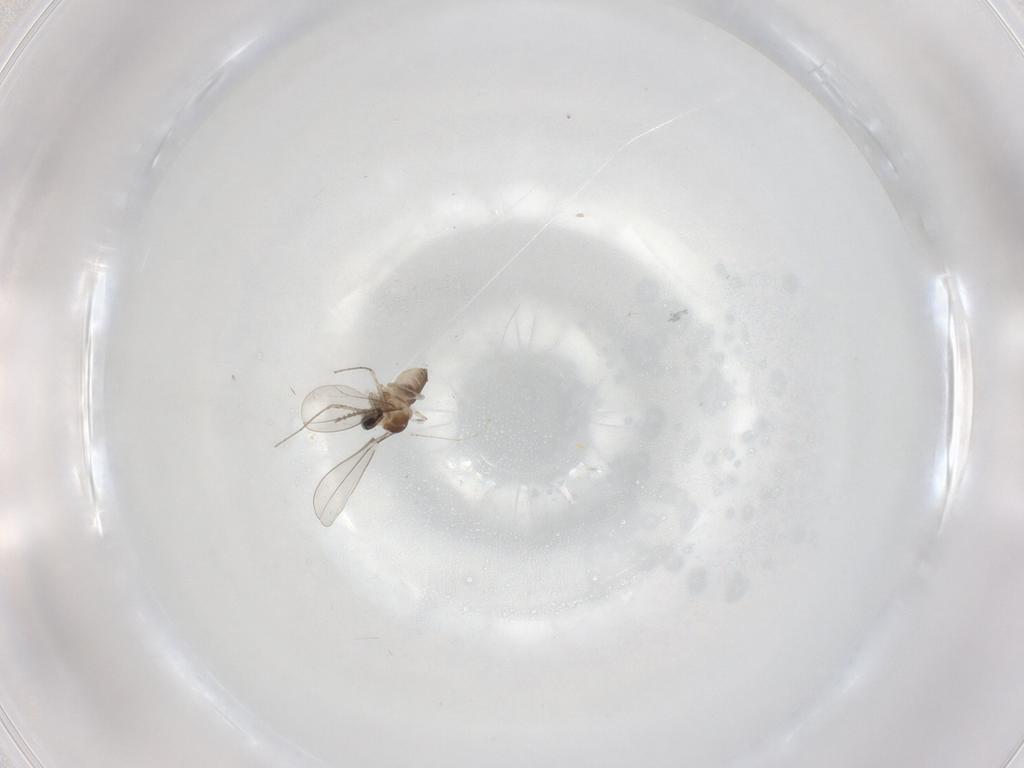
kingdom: Animalia
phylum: Arthropoda
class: Insecta
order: Diptera
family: Cecidomyiidae
